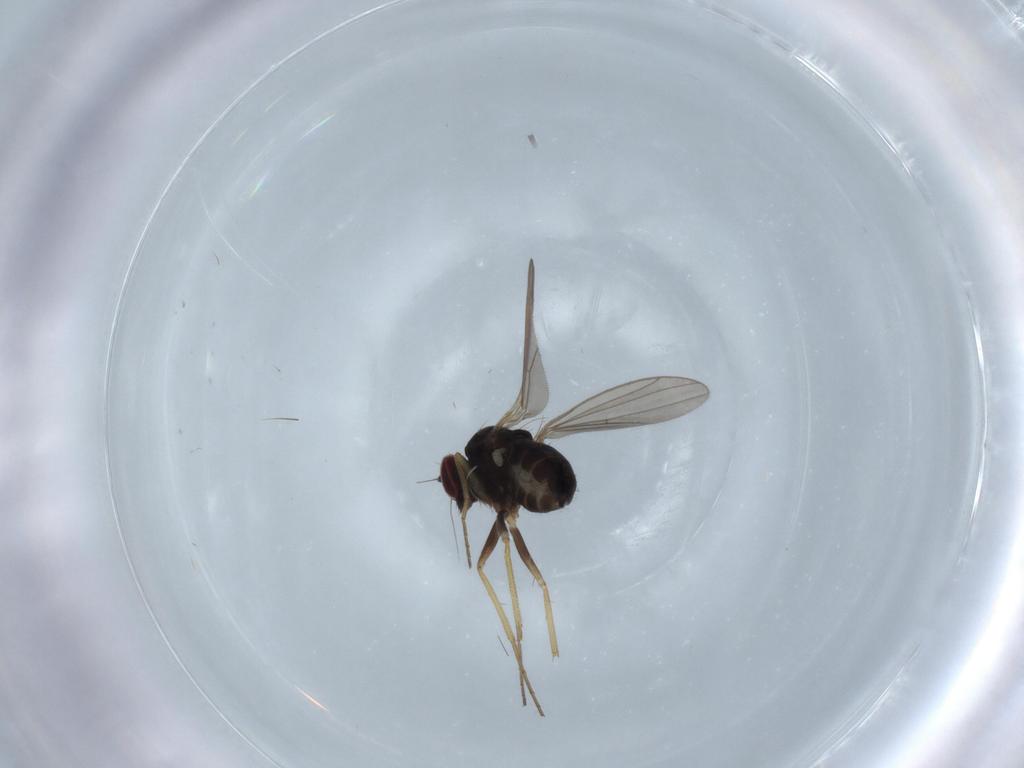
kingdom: Animalia
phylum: Arthropoda
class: Insecta
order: Diptera
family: Dolichopodidae
